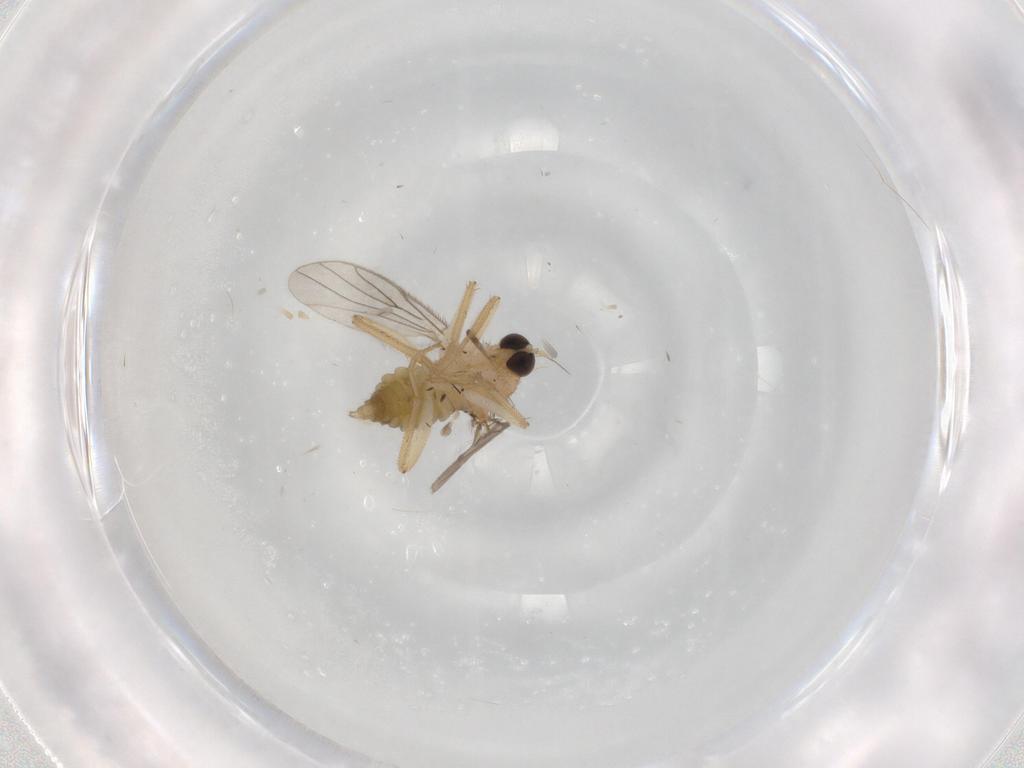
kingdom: Animalia
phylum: Arthropoda
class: Insecta
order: Diptera
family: Hybotidae
